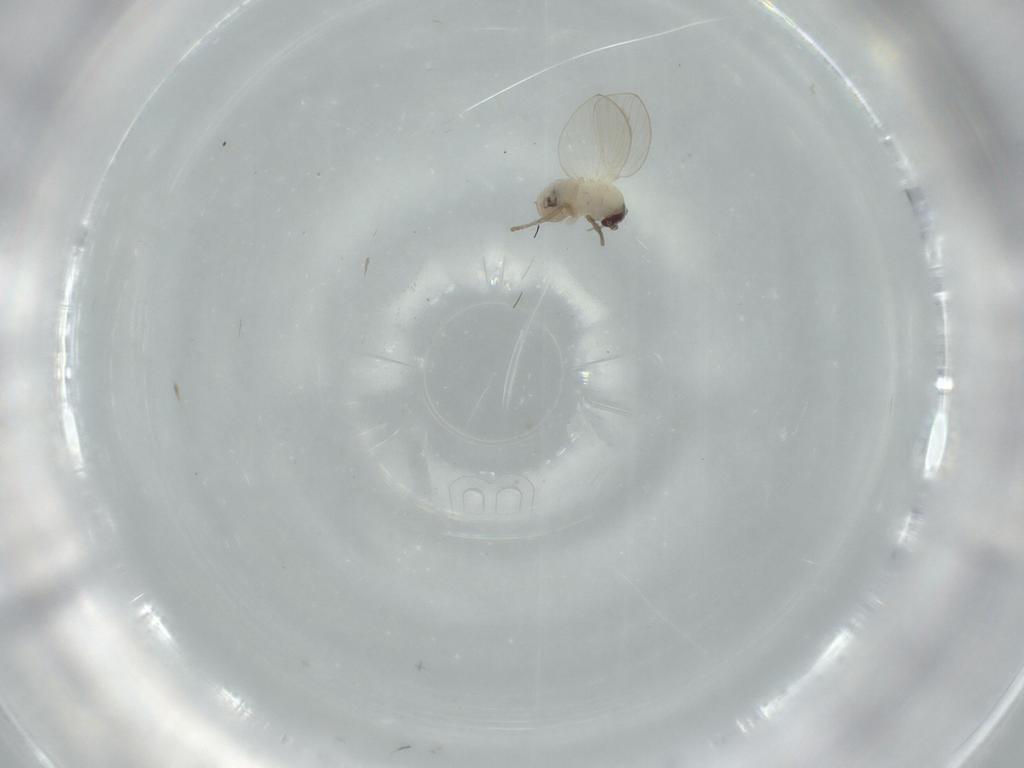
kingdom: Animalia
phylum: Arthropoda
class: Insecta
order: Diptera
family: Psychodidae
